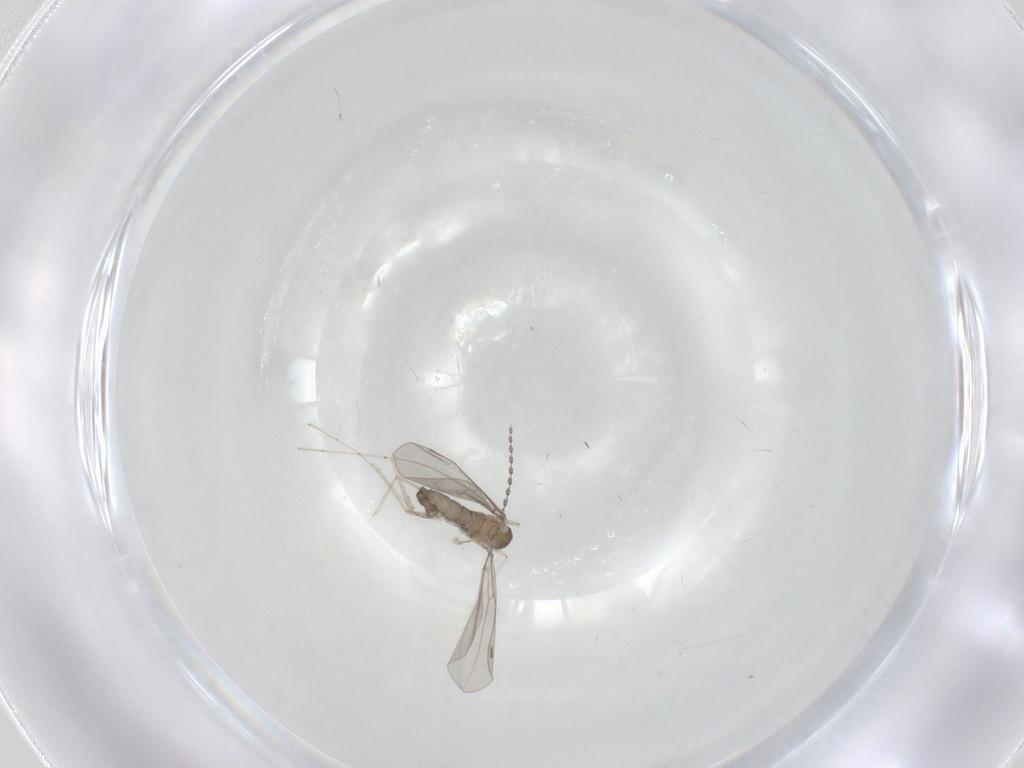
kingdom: Animalia
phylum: Arthropoda
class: Insecta
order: Diptera
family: Cecidomyiidae
